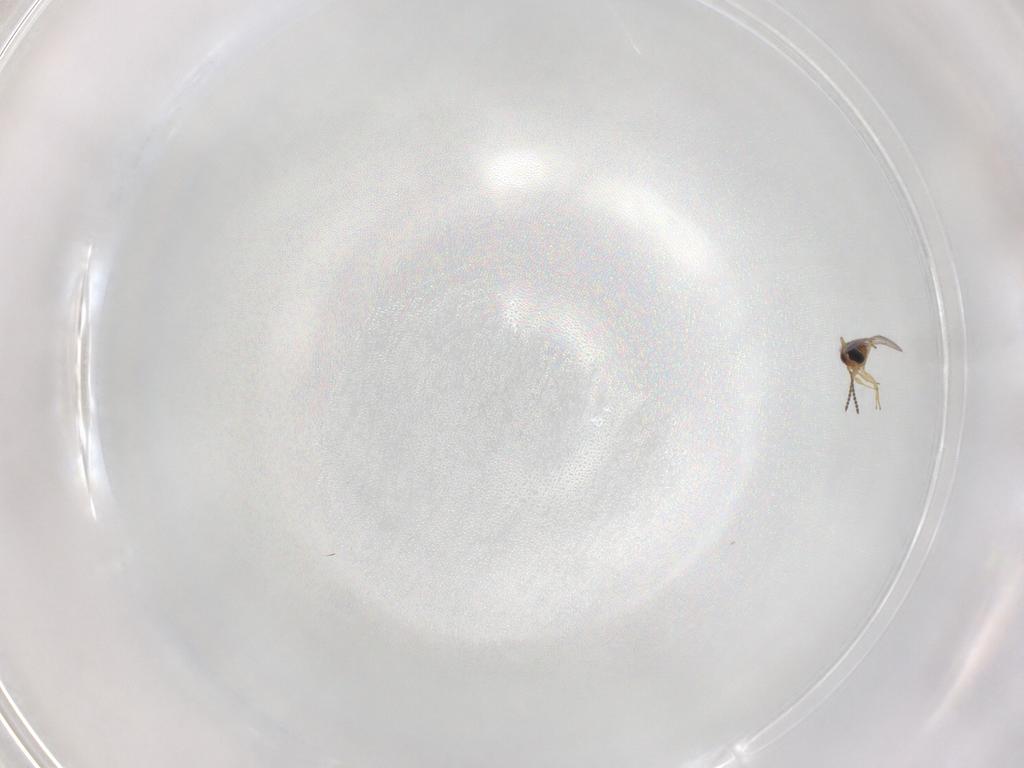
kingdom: Animalia
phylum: Arthropoda
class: Insecta
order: Hymenoptera
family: Scelionidae
